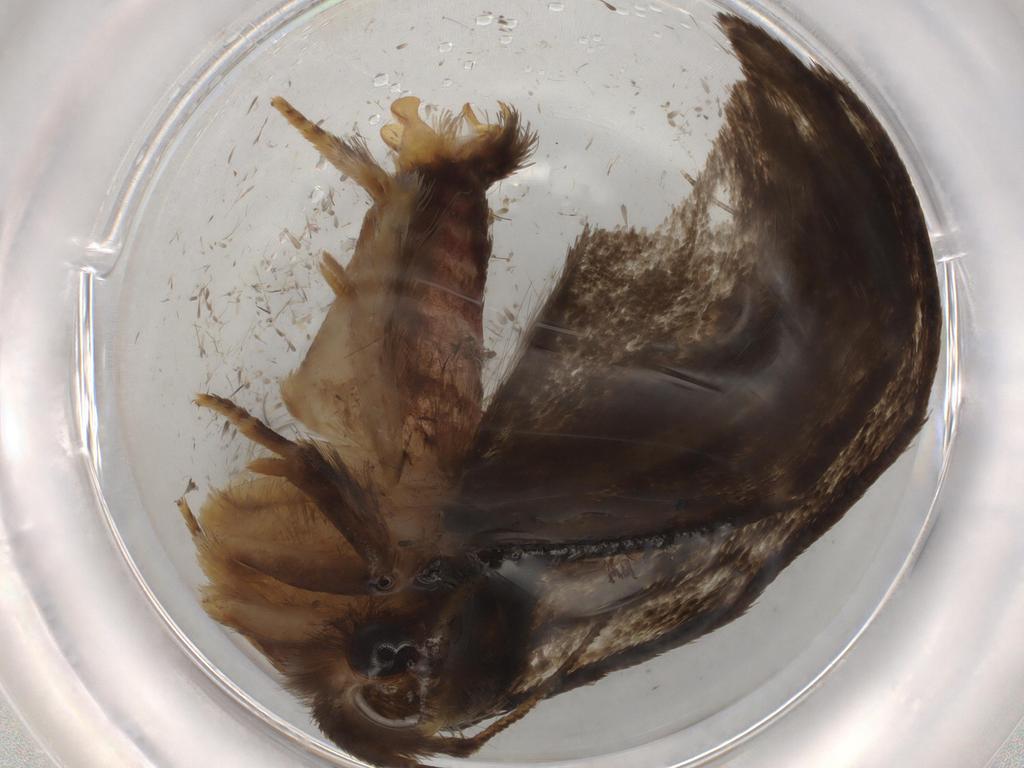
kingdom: Animalia
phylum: Arthropoda
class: Insecta
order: Lepidoptera
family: Tineidae
